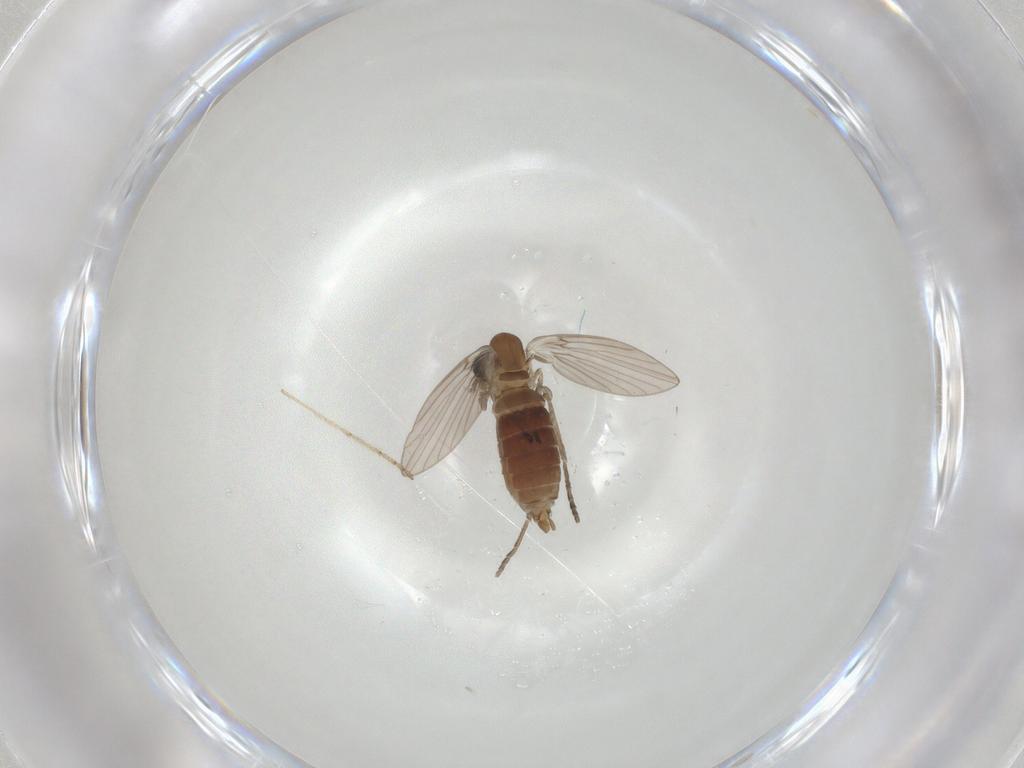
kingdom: Animalia
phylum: Arthropoda
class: Insecta
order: Diptera
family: Psychodidae
